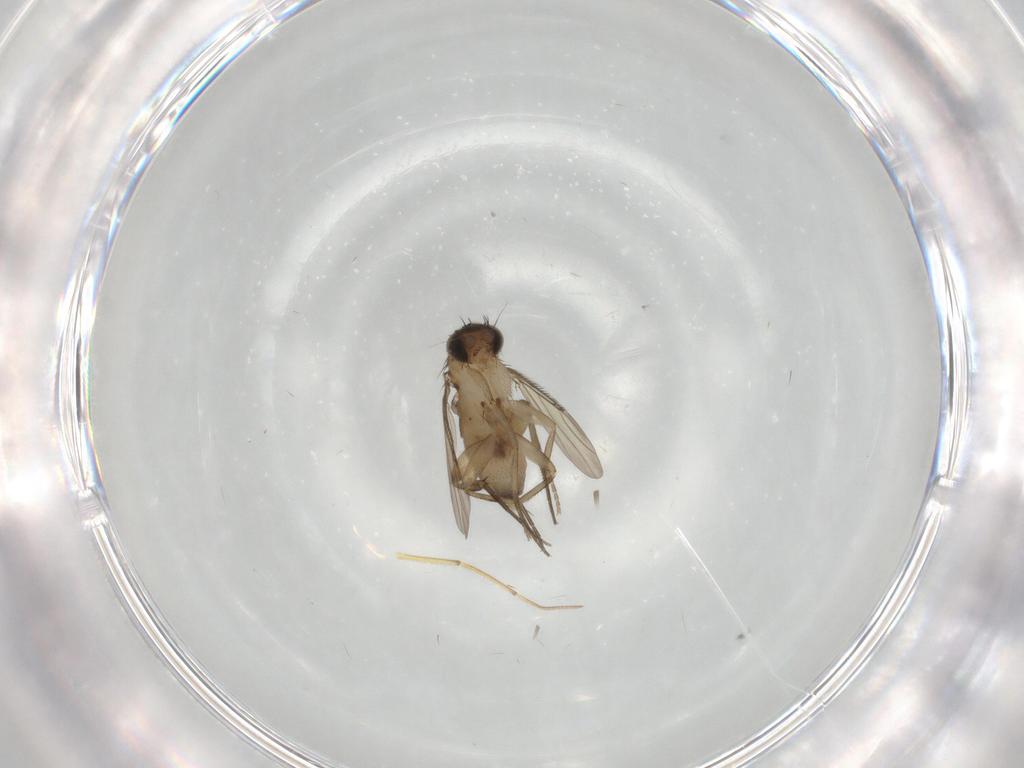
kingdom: Animalia
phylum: Arthropoda
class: Insecta
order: Diptera
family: Phoridae
